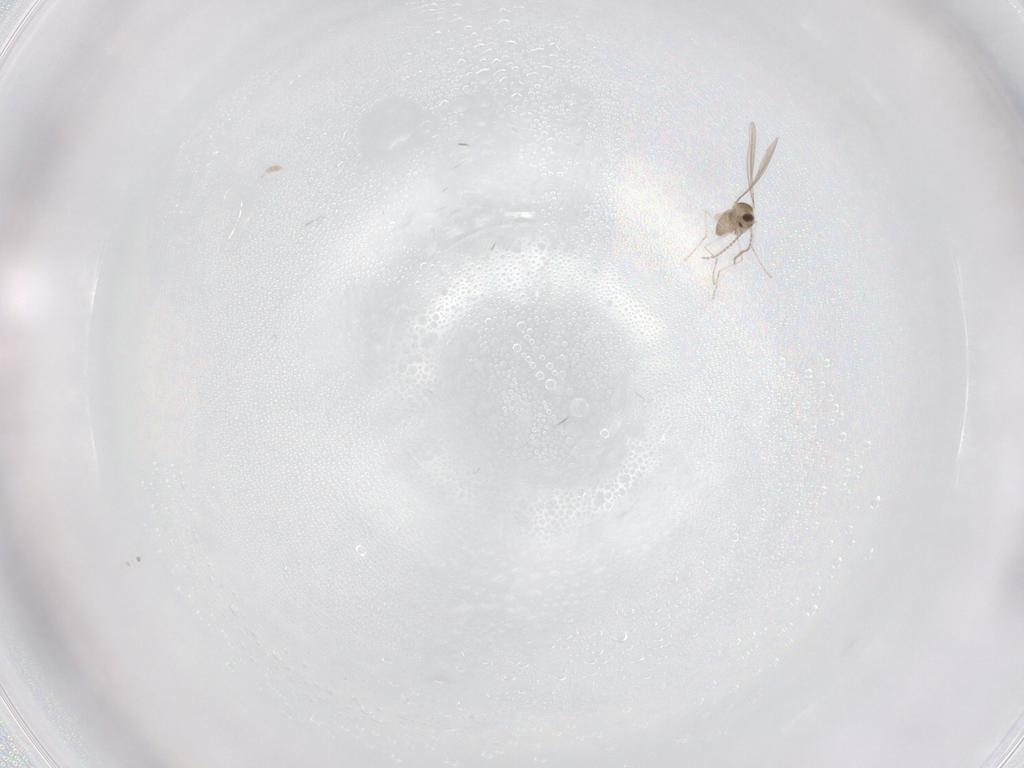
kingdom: Animalia
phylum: Arthropoda
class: Insecta
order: Diptera
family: Cecidomyiidae
